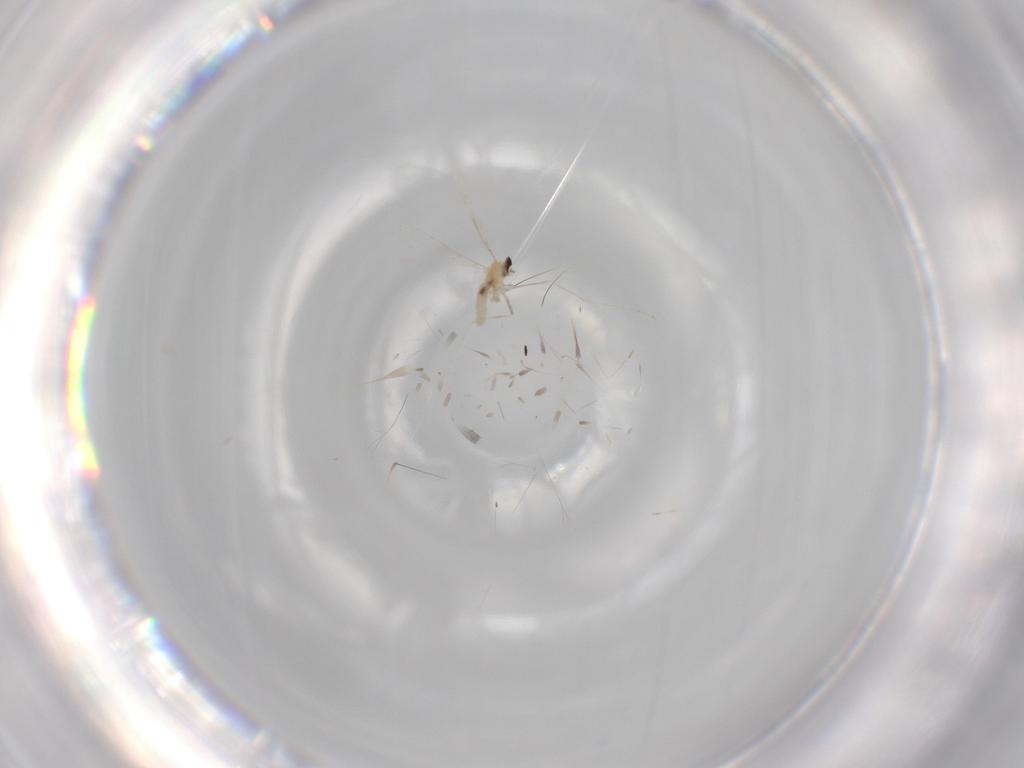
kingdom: Animalia
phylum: Arthropoda
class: Insecta
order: Diptera
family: Cecidomyiidae
